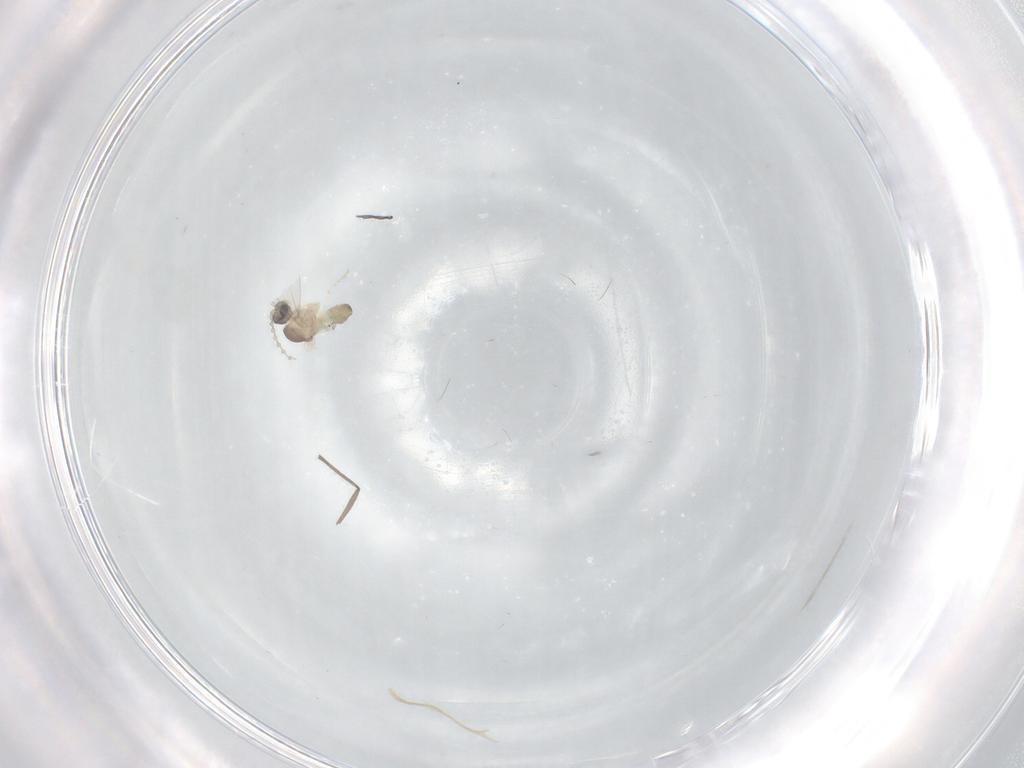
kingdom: Animalia
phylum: Arthropoda
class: Insecta
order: Diptera
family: Cecidomyiidae
